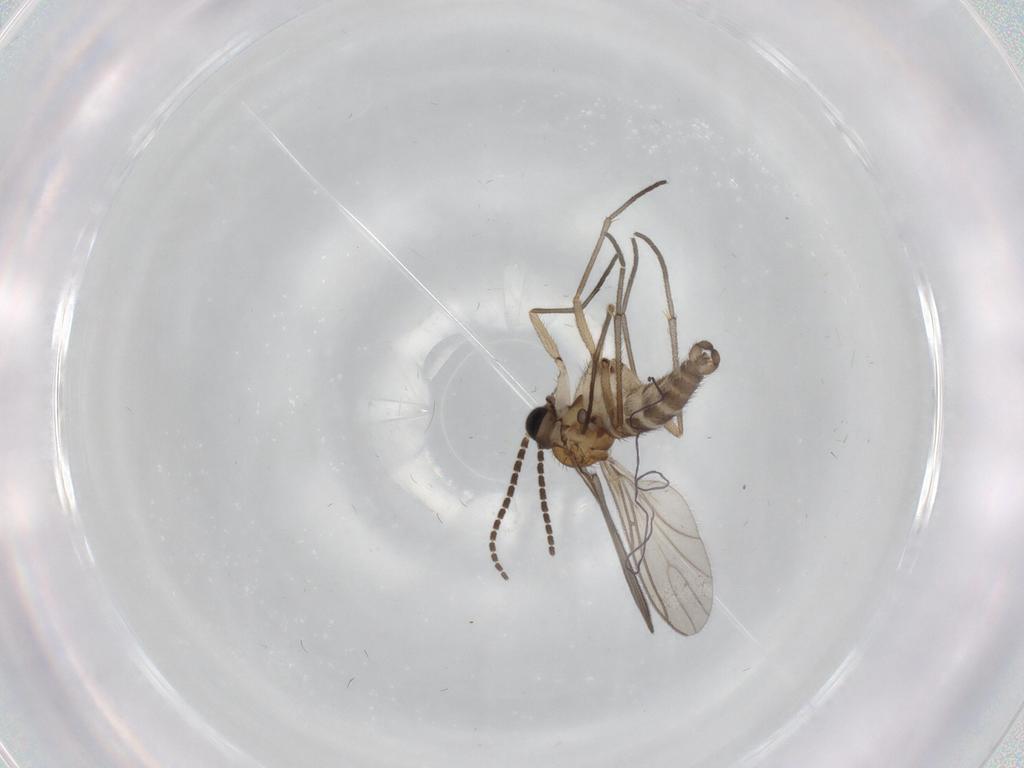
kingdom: Animalia
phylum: Arthropoda
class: Insecta
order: Diptera
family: Sciaridae
